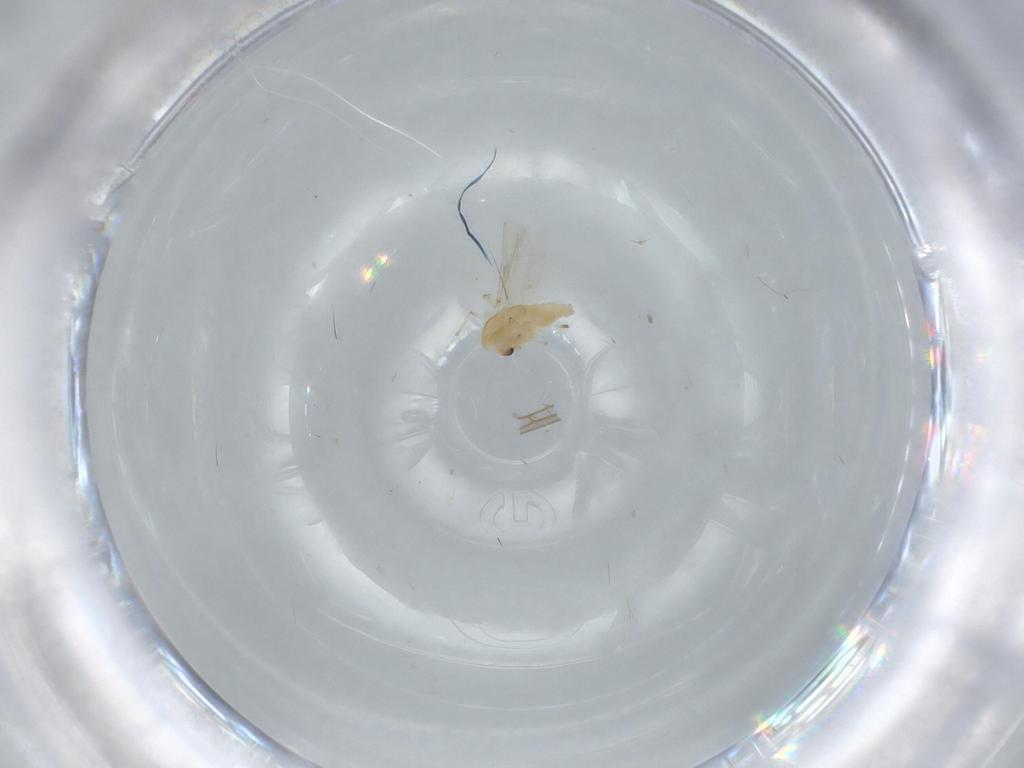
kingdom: Animalia
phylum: Arthropoda
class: Insecta
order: Diptera
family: Chironomidae
